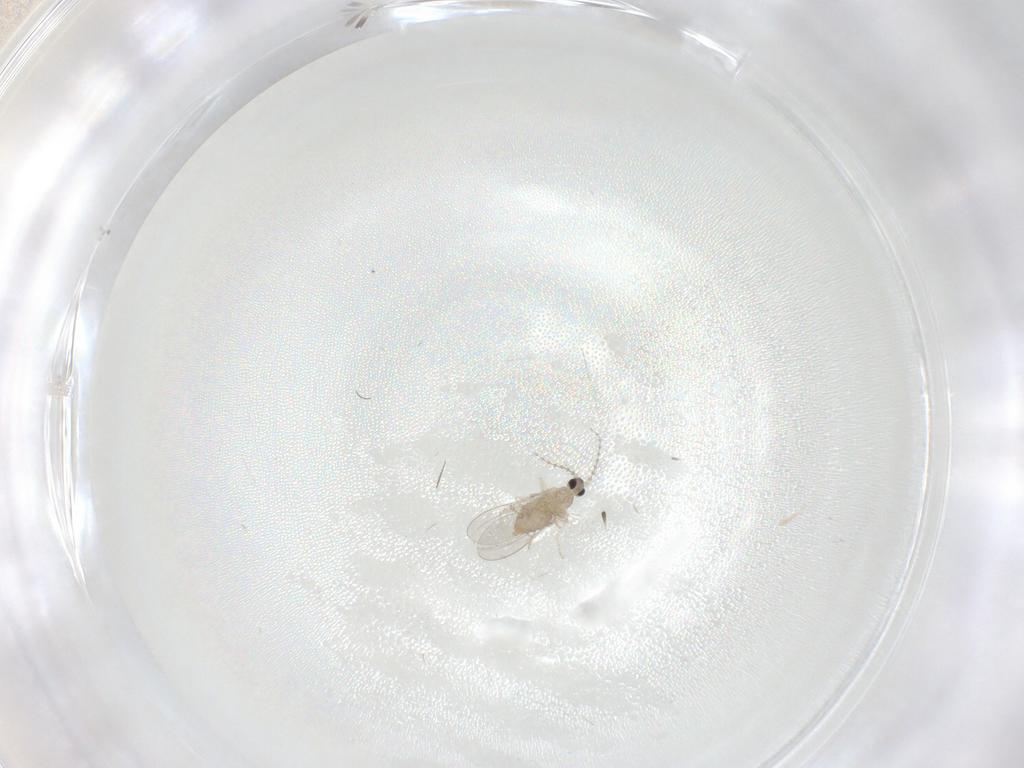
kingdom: Animalia
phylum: Arthropoda
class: Insecta
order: Diptera
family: Cecidomyiidae
